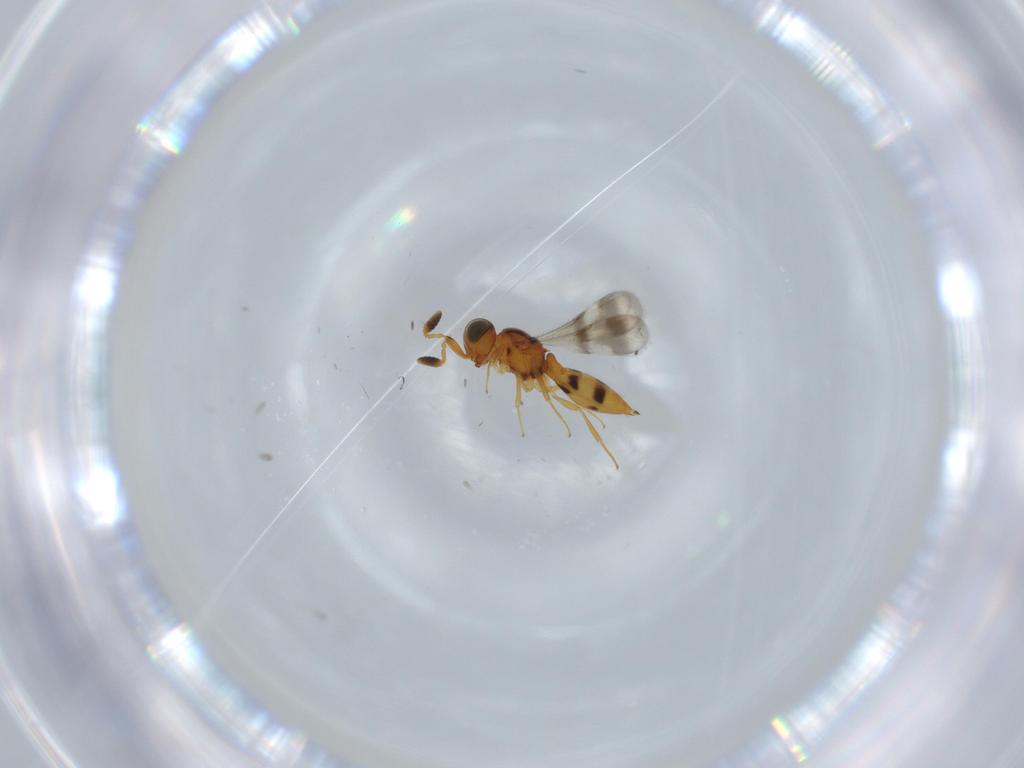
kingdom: Animalia
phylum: Arthropoda
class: Insecta
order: Hymenoptera
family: Scelionidae
